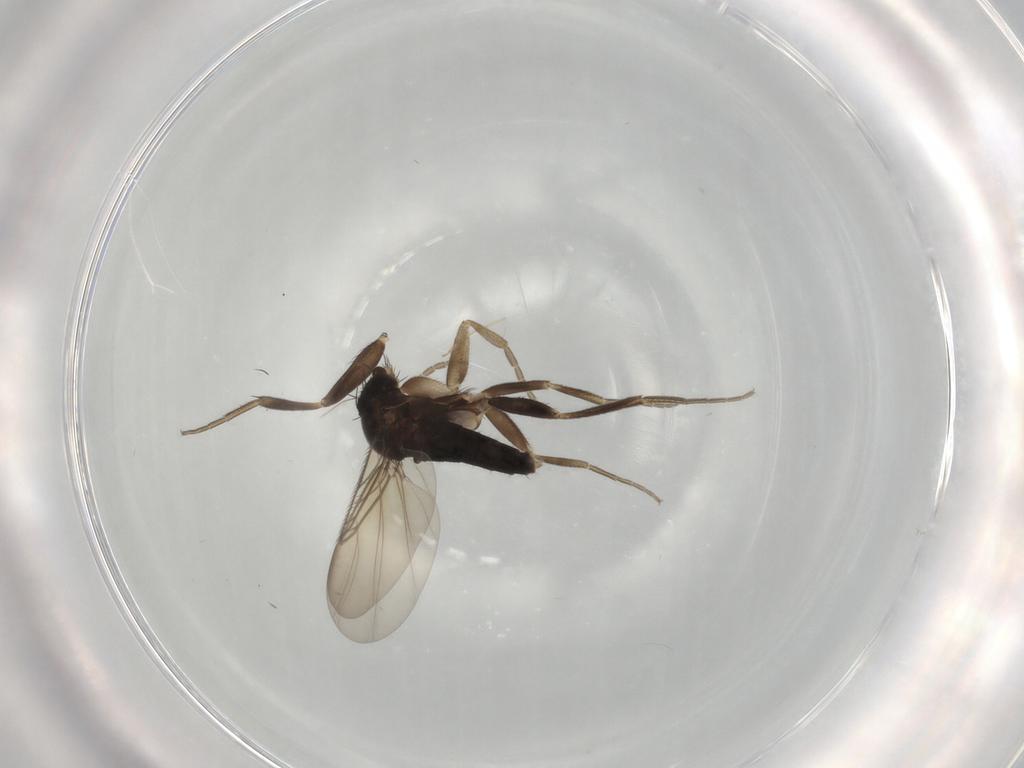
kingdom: Animalia
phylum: Arthropoda
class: Insecta
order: Diptera
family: Phoridae
